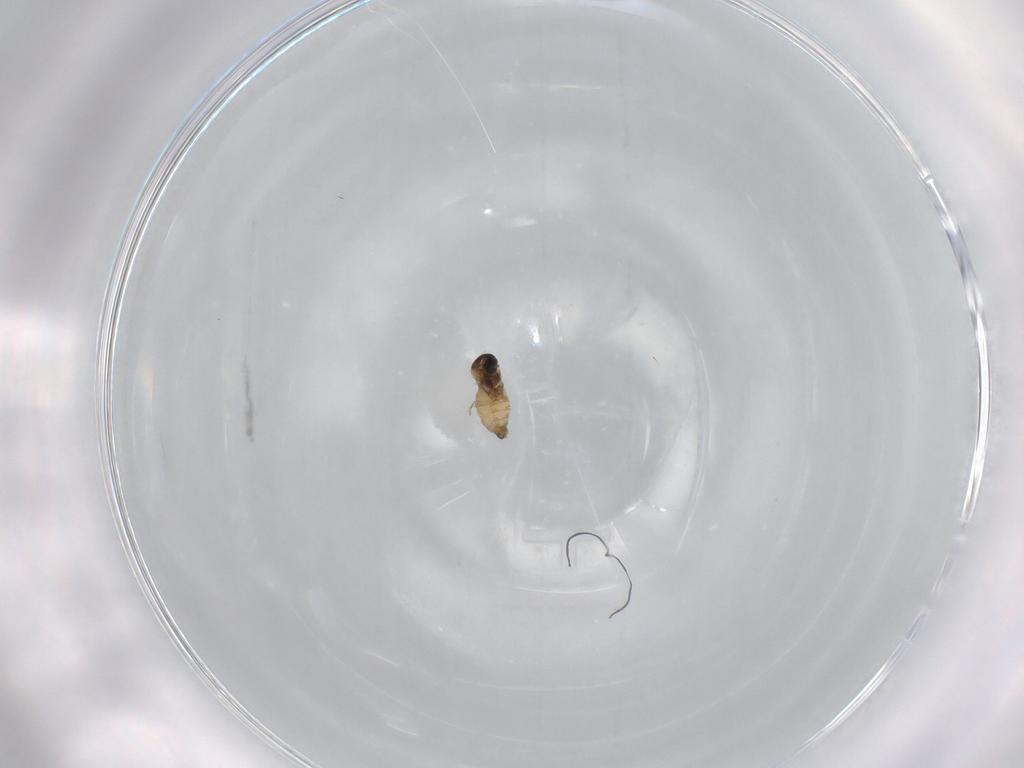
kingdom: Animalia
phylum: Arthropoda
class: Insecta
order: Diptera
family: Cecidomyiidae
